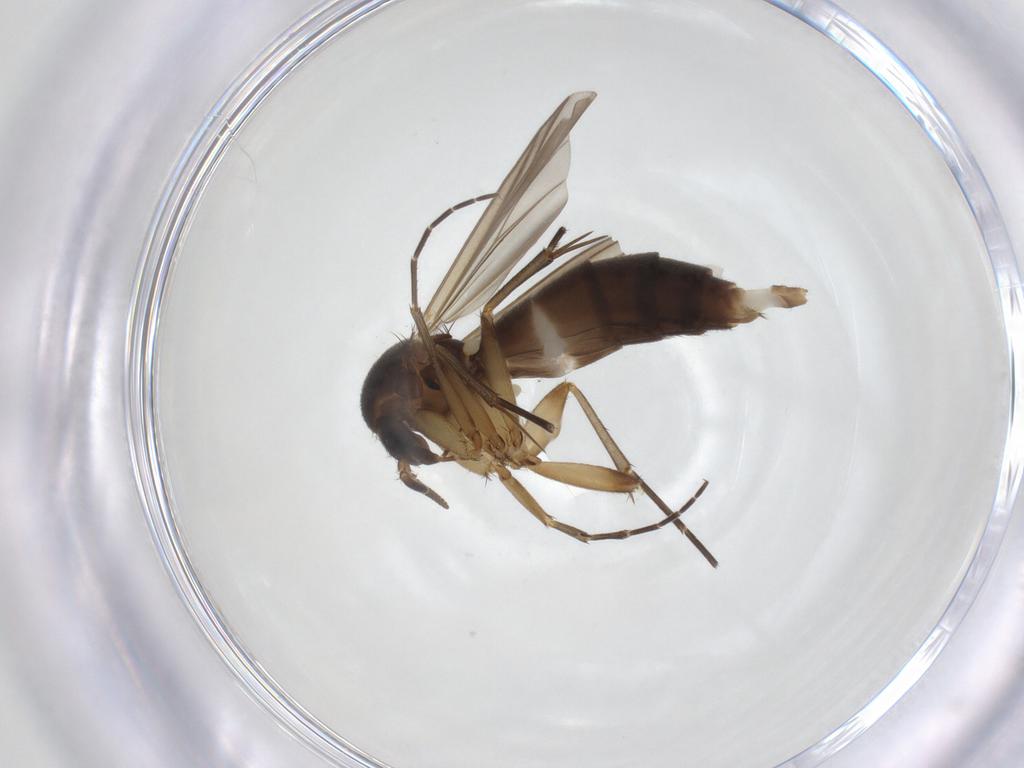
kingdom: Animalia
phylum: Arthropoda
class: Insecta
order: Diptera
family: Mycetophilidae
